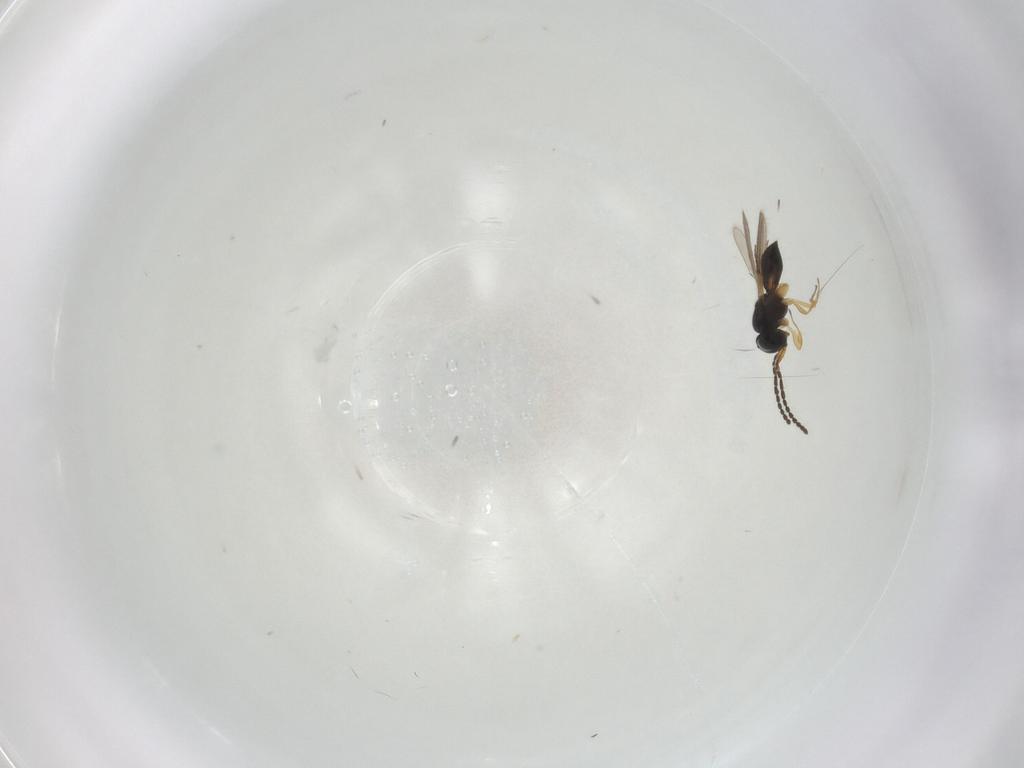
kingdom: Animalia
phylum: Arthropoda
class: Insecta
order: Hymenoptera
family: Scelionidae
